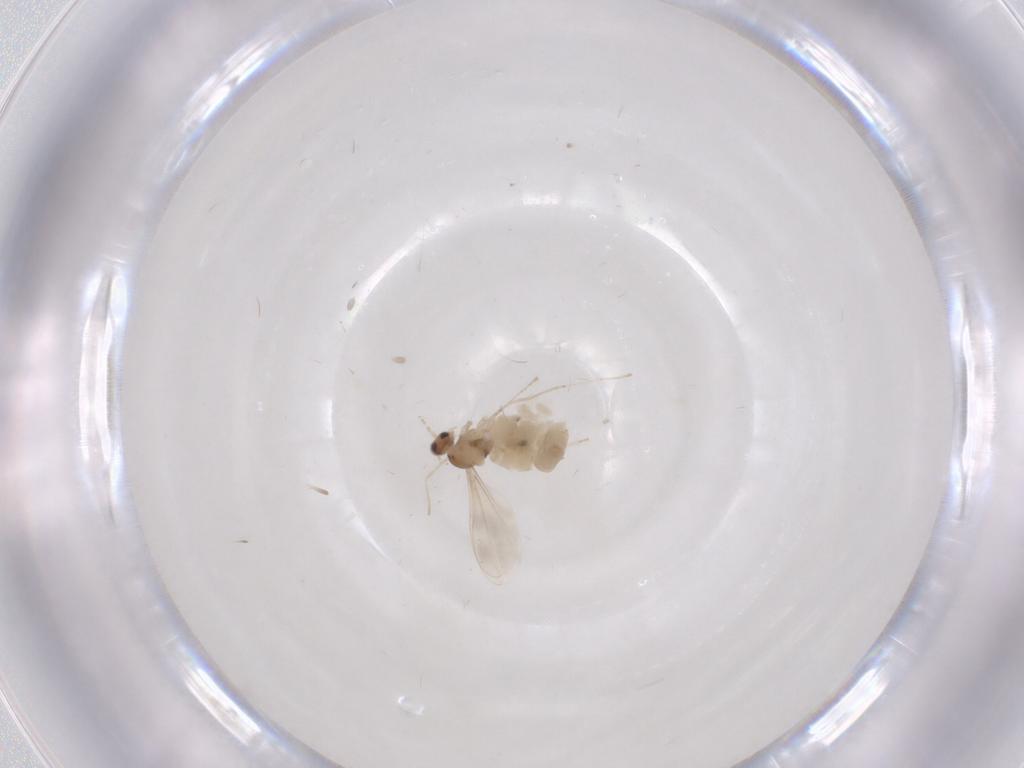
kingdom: Animalia
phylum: Arthropoda
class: Insecta
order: Diptera
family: Cecidomyiidae
